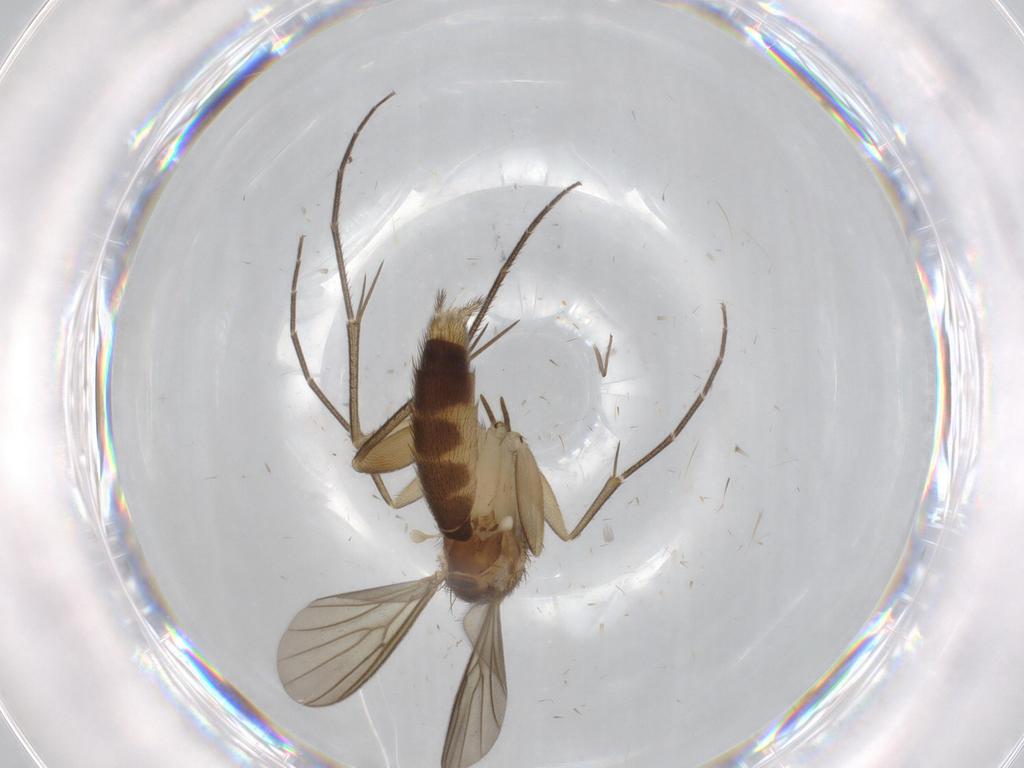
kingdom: Animalia
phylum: Arthropoda
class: Insecta
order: Diptera
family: Mycetophilidae
